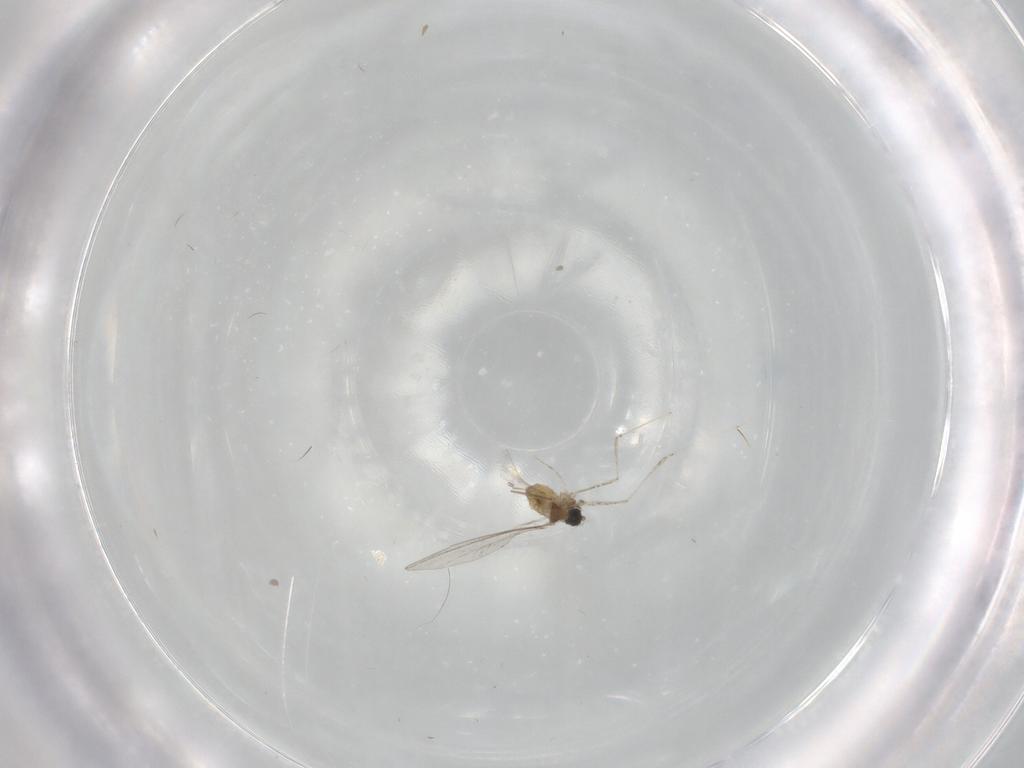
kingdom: Animalia
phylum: Arthropoda
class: Insecta
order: Diptera
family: Cecidomyiidae
